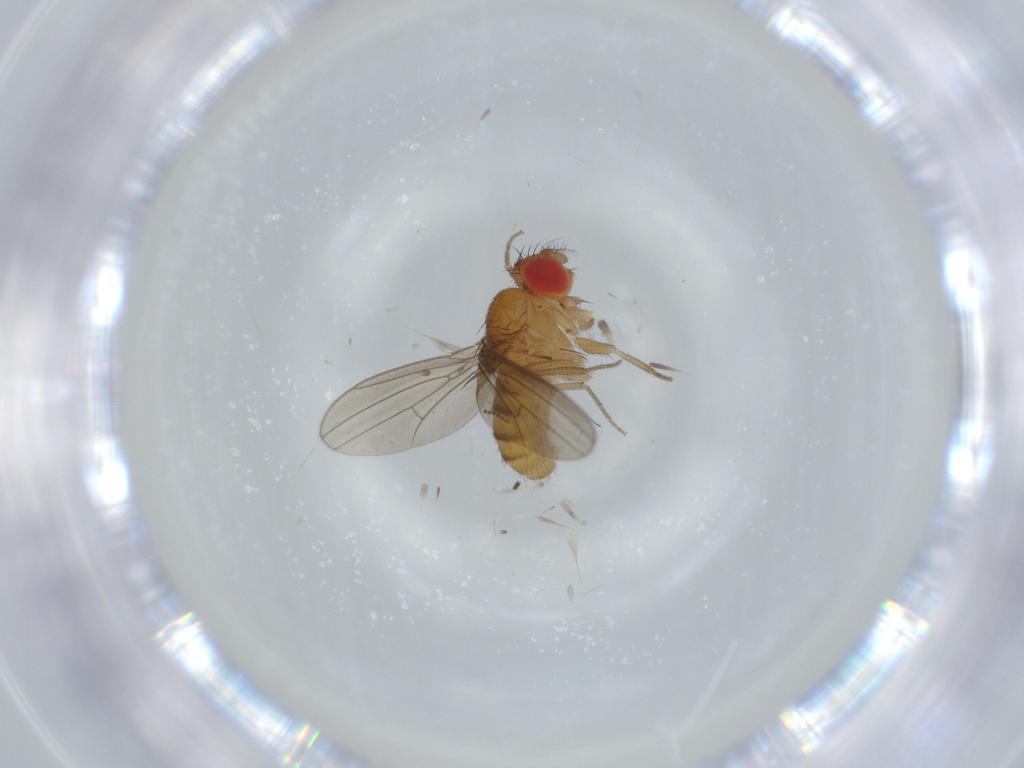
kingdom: Animalia
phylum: Arthropoda
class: Insecta
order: Diptera
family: Drosophilidae
